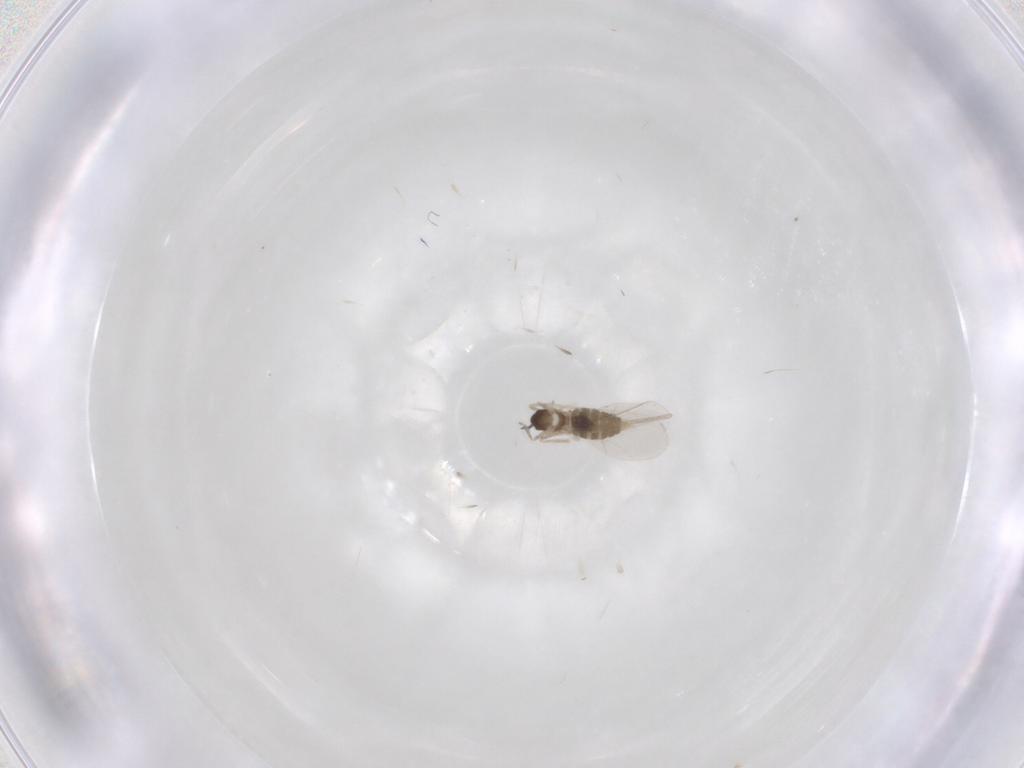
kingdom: Animalia
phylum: Arthropoda
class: Insecta
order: Diptera
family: Cecidomyiidae
